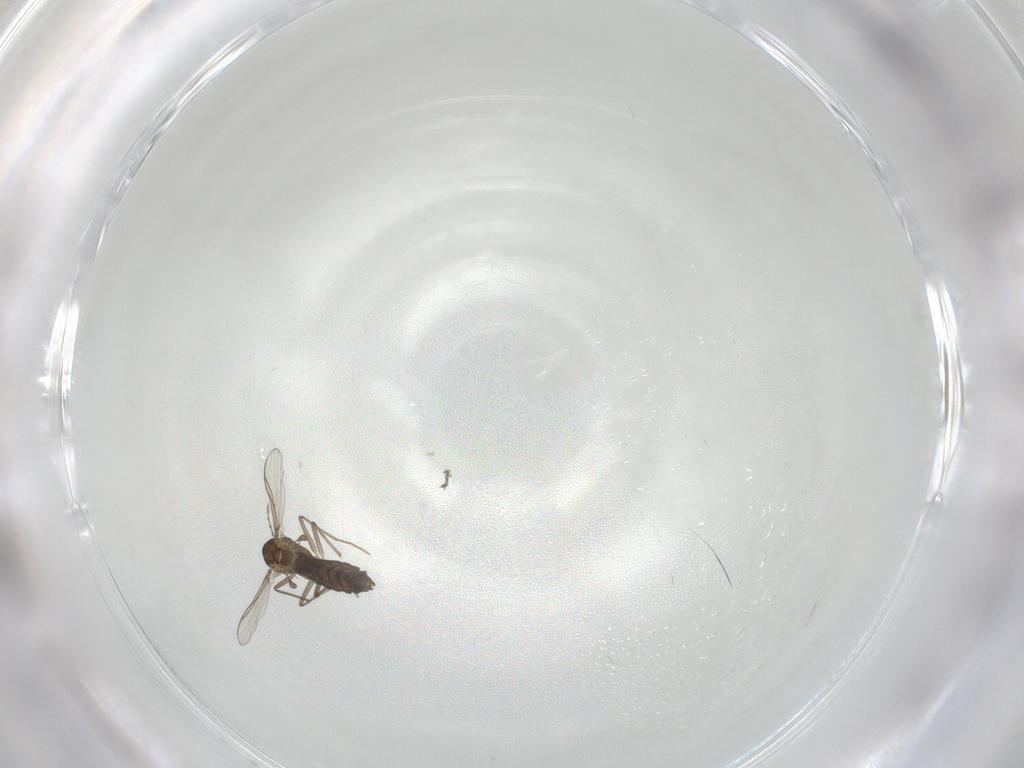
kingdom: Animalia
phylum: Arthropoda
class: Insecta
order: Diptera
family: Chironomidae
